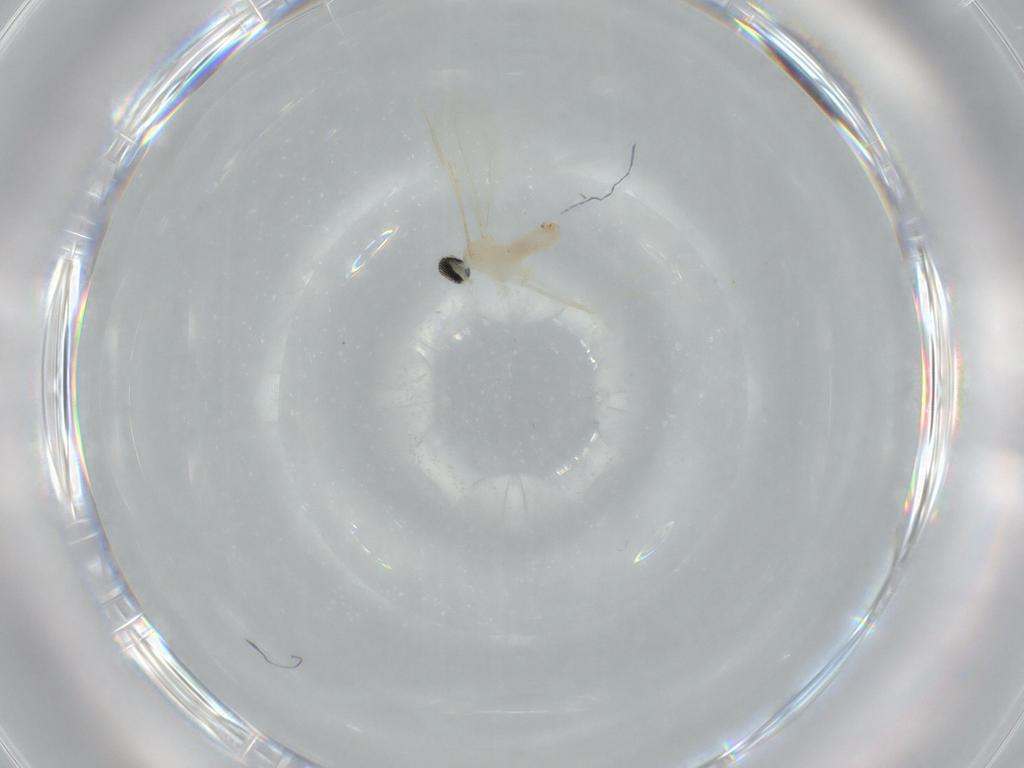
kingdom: Animalia
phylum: Arthropoda
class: Insecta
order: Diptera
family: Cecidomyiidae
